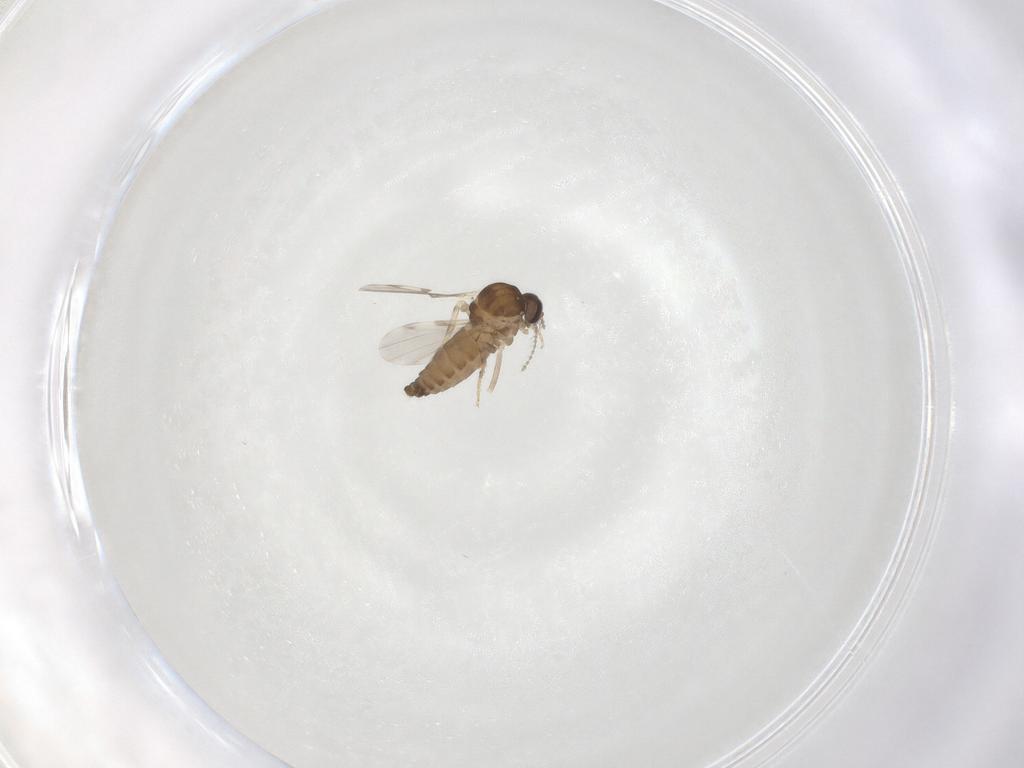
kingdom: Animalia
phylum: Arthropoda
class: Insecta
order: Diptera
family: Ceratopogonidae
